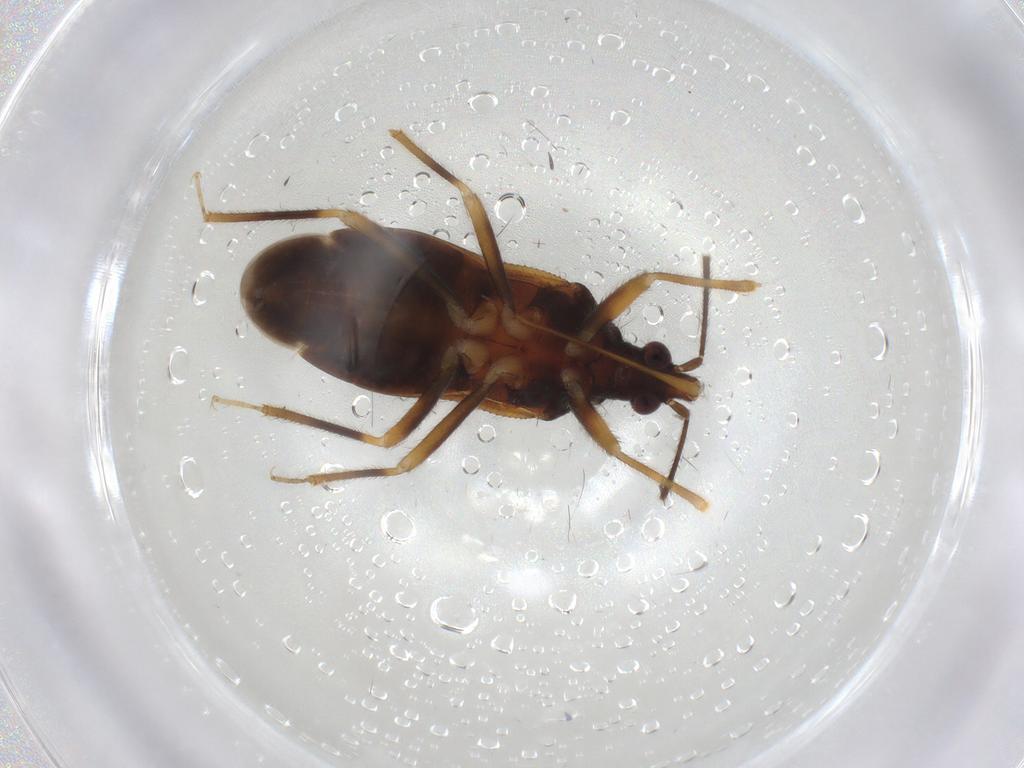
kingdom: Animalia
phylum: Arthropoda
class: Insecta
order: Hemiptera
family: Anthocoridae
